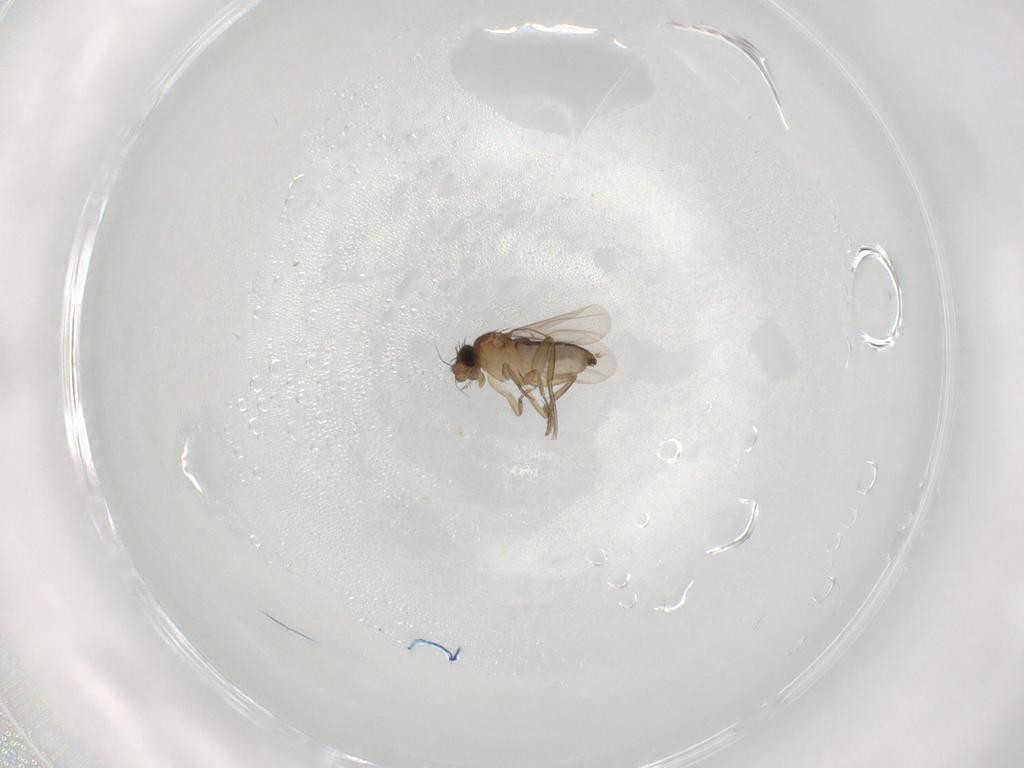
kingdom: Animalia
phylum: Arthropoda
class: Insecta
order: Diptera
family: Phoridae
